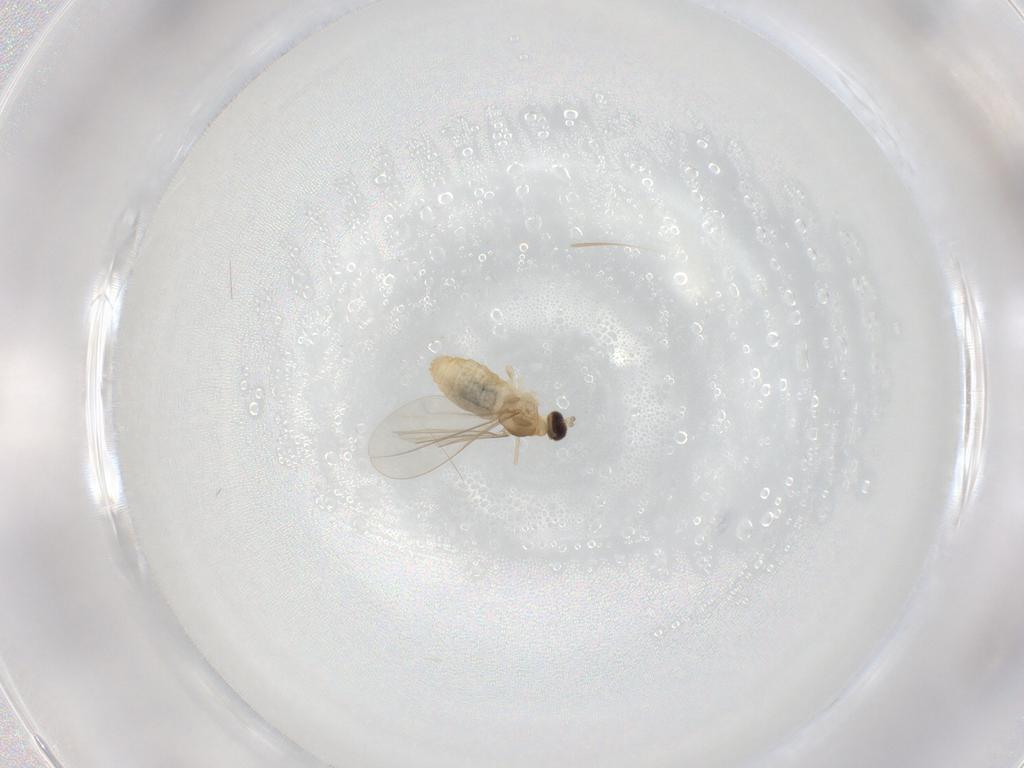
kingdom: Animalia
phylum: Arthropoda
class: Insecta
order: Diptera
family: Cecidomyiidae
